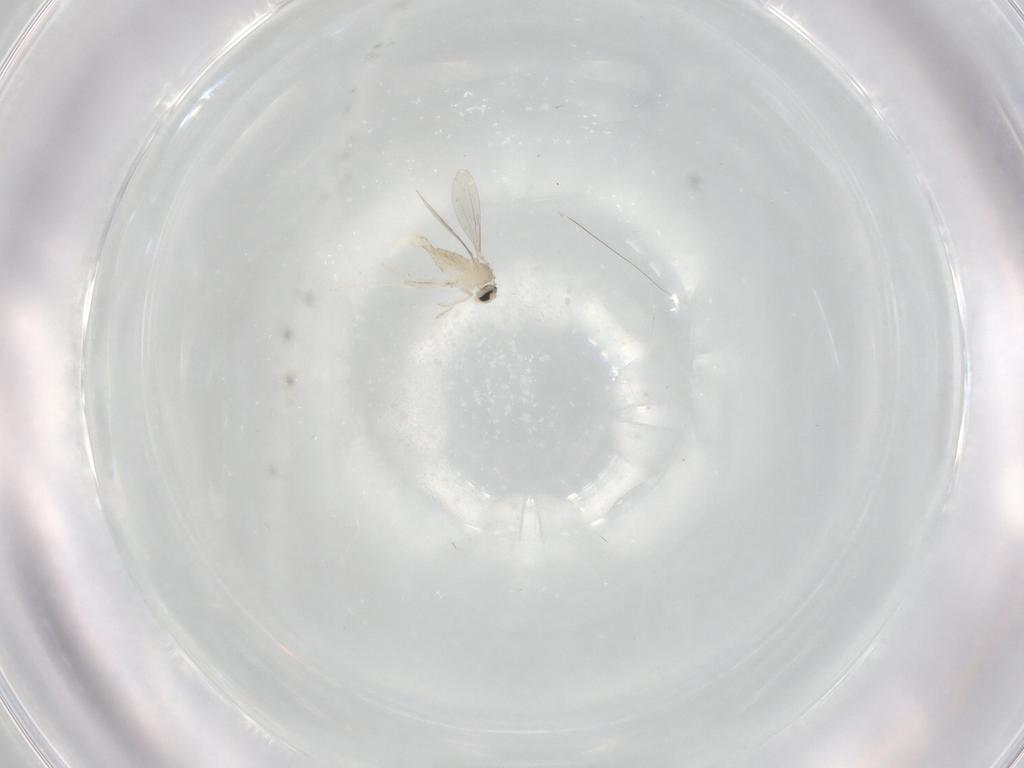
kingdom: Animalia
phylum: Arthropoda
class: Insecta
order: Diptera
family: Cecidomyiidae
